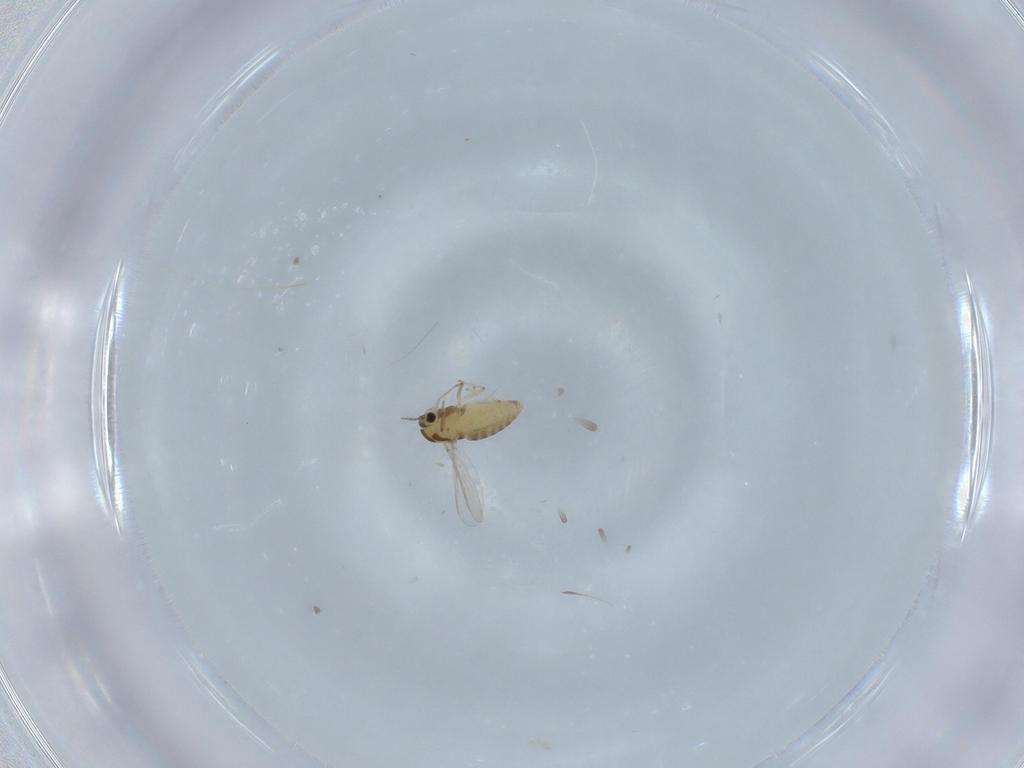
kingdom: Animalia
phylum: Arthropoda
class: Insecta
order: Diptera
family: Chironomidae
